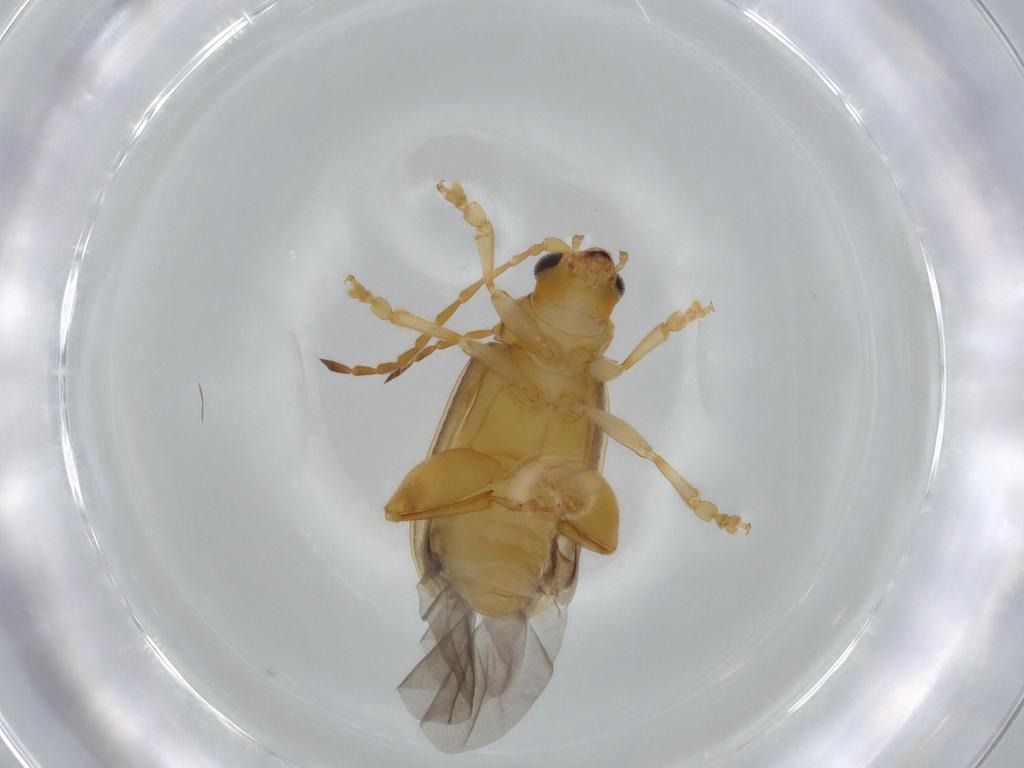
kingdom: Animalia
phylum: Arthropoda
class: Insecta
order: Coleoptera
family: Chrysomelidae
